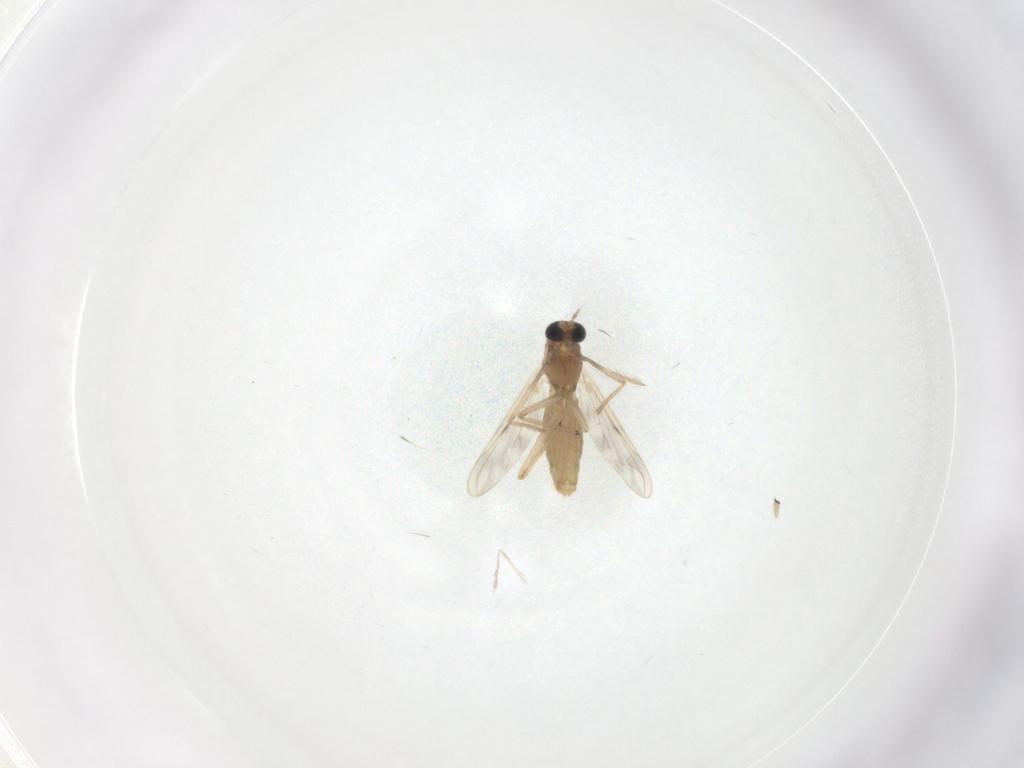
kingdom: Animalia
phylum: Arthropoda
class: Insecta
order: Diptera
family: Chironomidae
